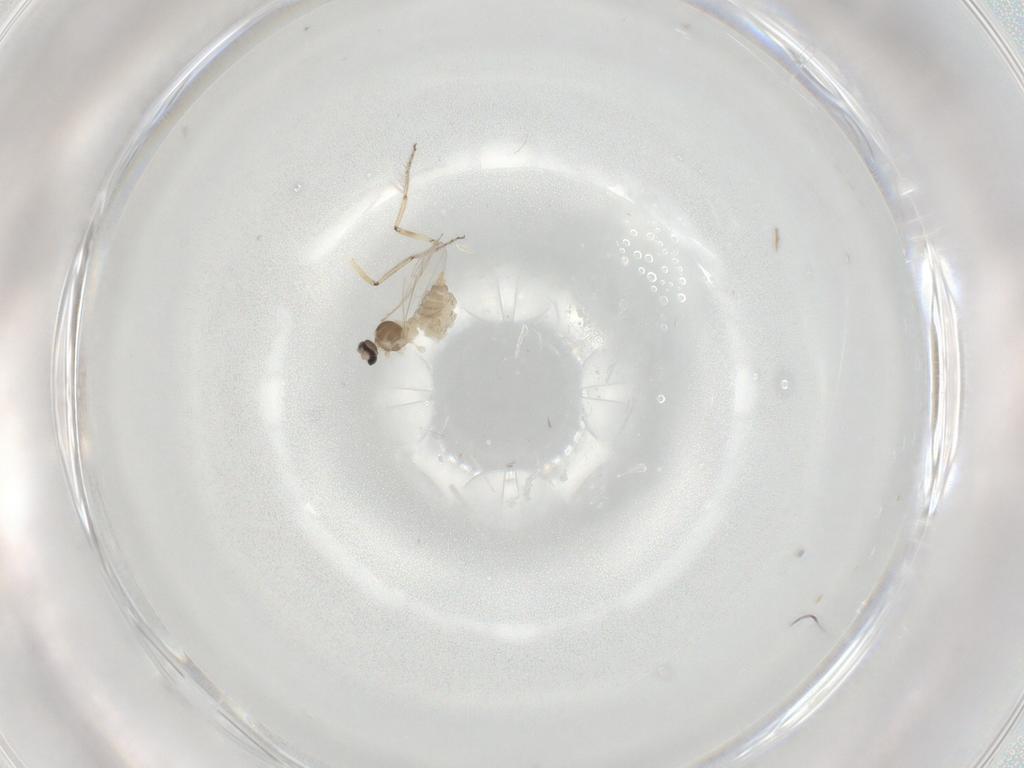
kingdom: Animalia
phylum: Arthropoda
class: Insecta
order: Diptera
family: Cecidomyiidae
